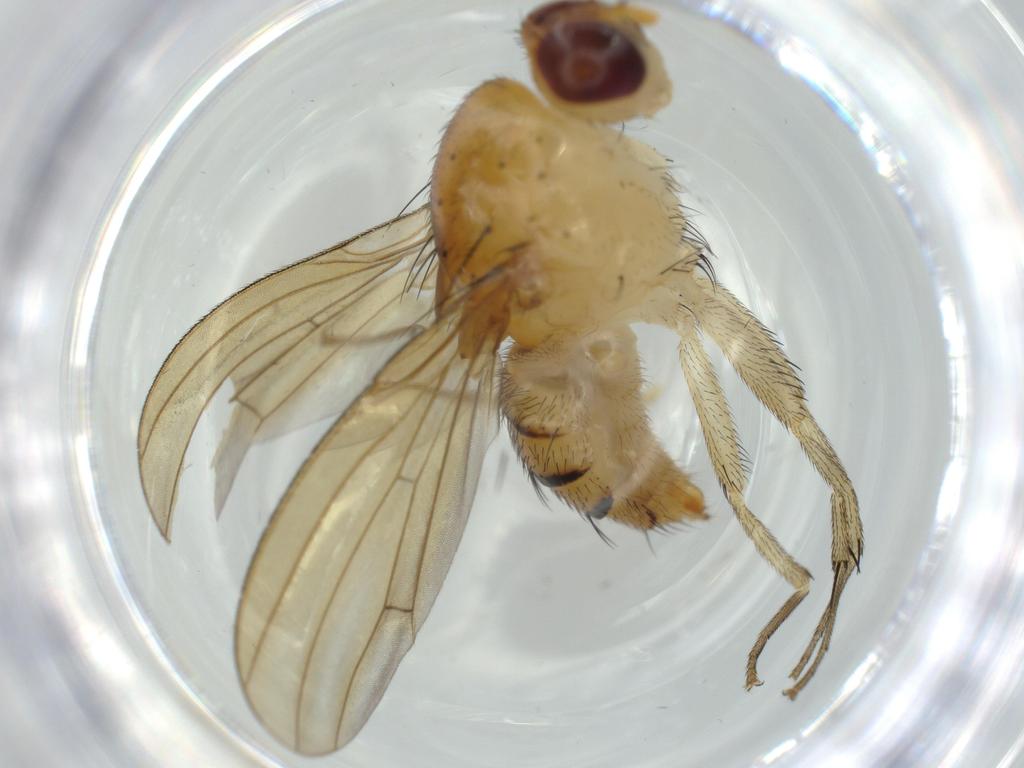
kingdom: Animalia
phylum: Arthropoda
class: Insecta
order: Diptera
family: Lauxaniidae
